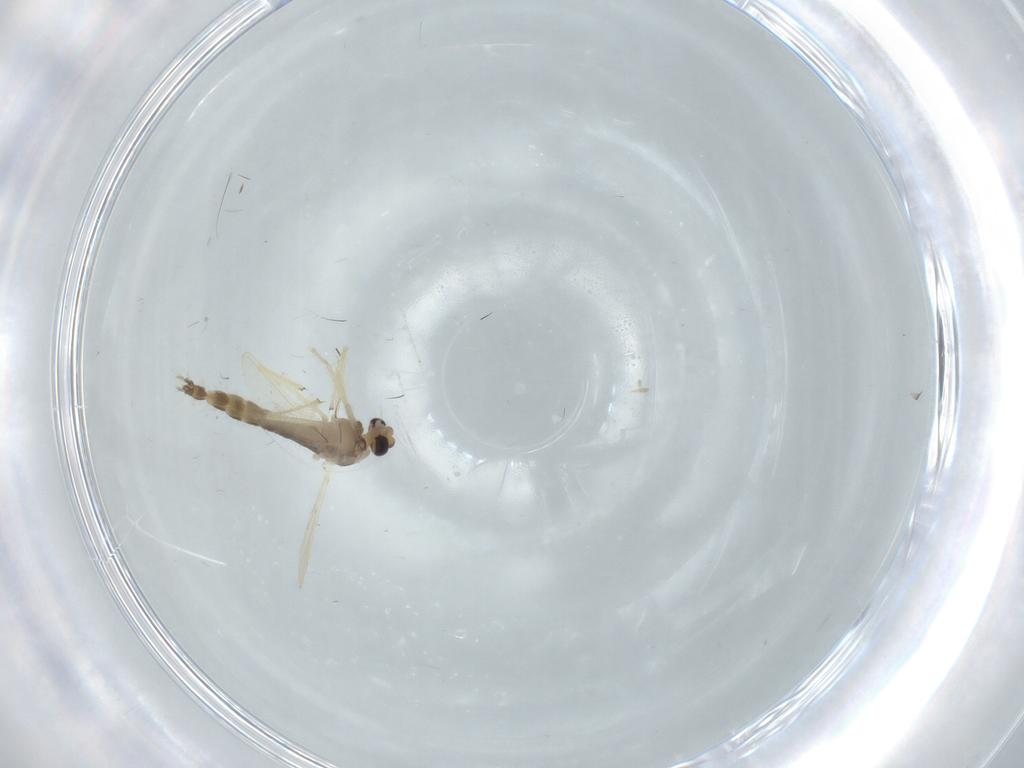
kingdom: Animalia
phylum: Arthropoda
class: Insecta
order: Diptera
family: Chironomidae
